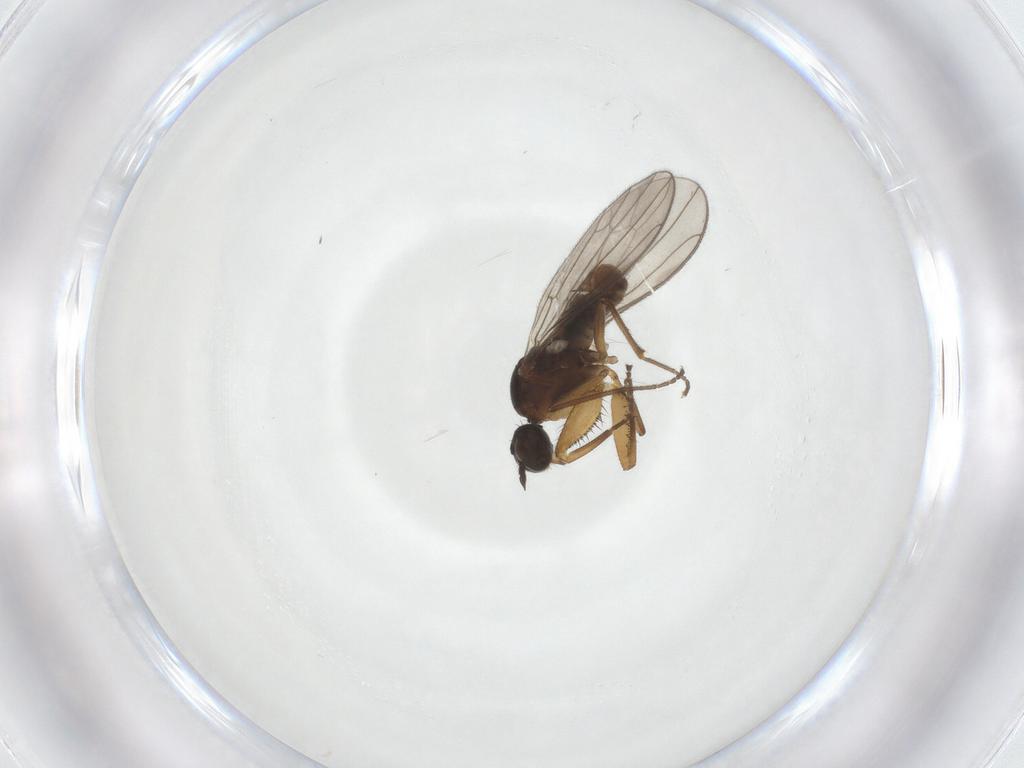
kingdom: Animalia
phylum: Arthropoda
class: Insecta
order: Diptera
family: Empididae
